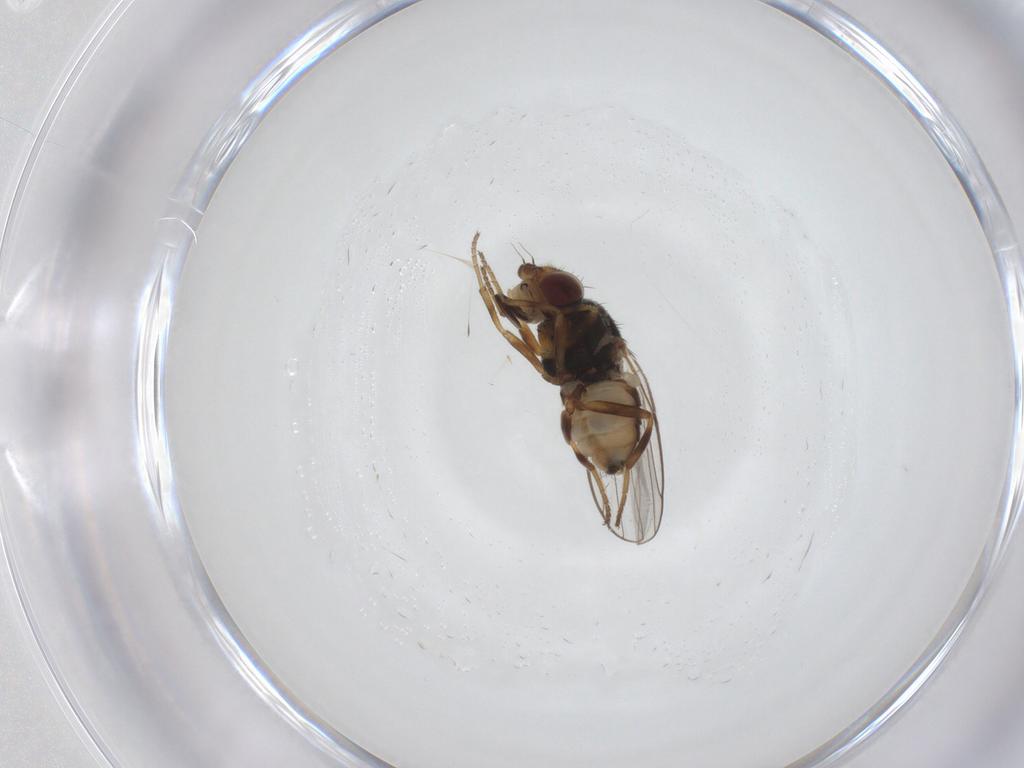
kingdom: Animalia
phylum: Arthropoda
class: Insecta
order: Diptera
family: Chloropidae
